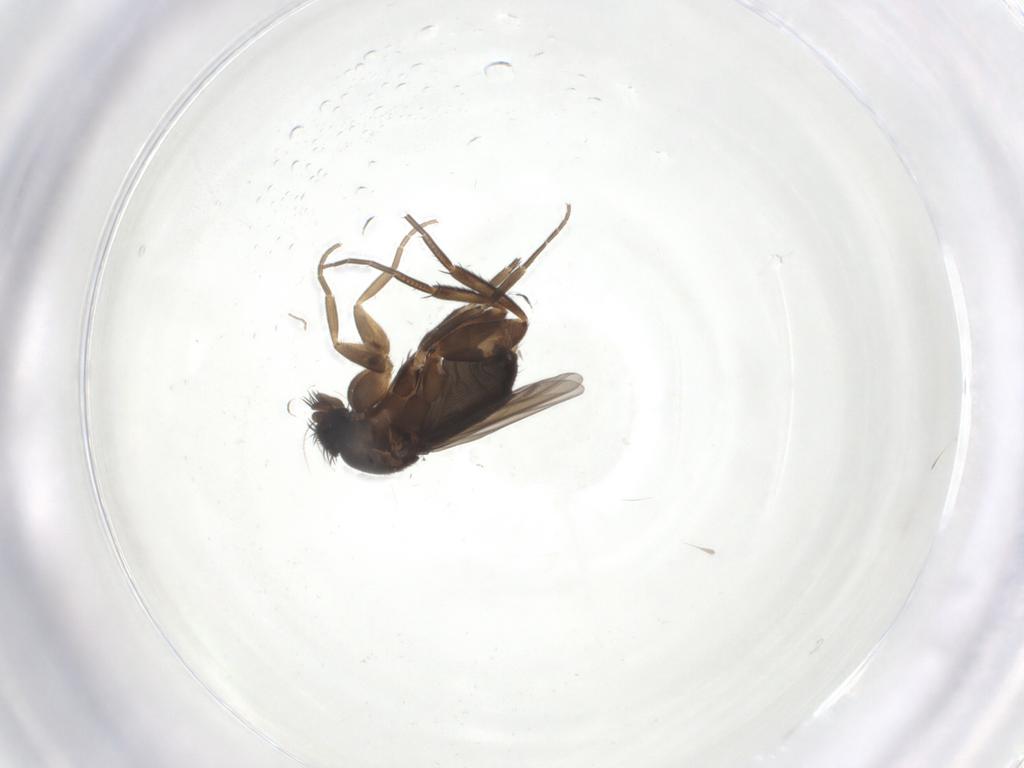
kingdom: Animalia
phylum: Arthropoda
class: Insecta
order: Diptera
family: Phoridae
